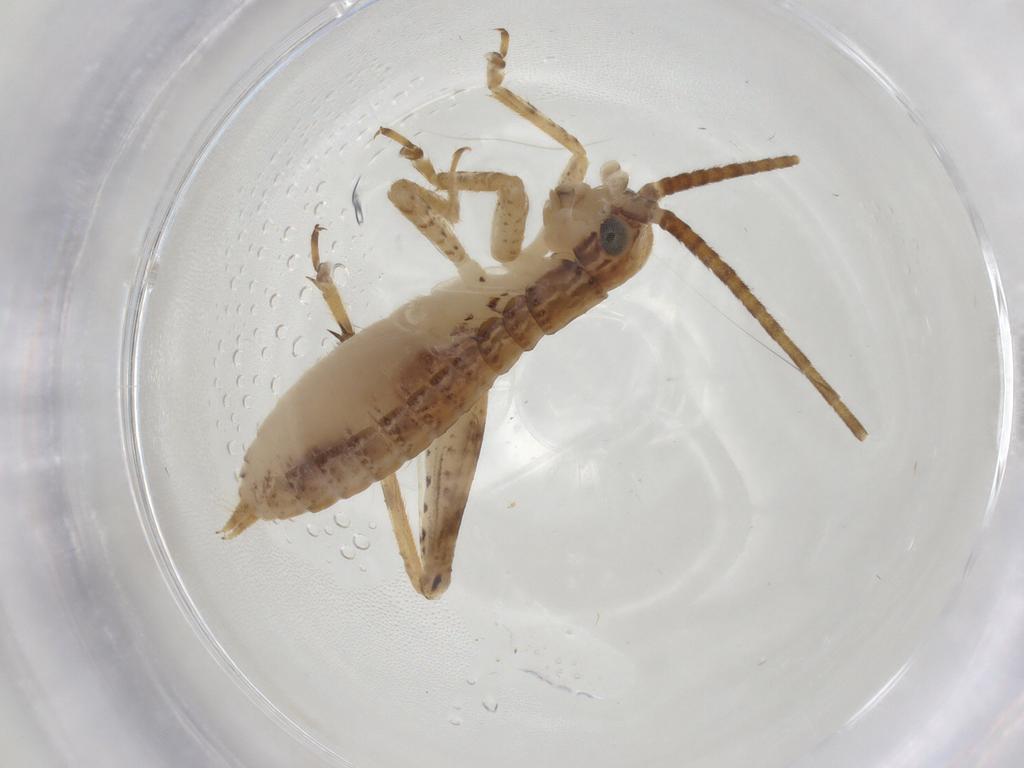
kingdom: Animalia
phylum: Arthropoda
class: Insecta
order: Orthoptera
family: Gryllidae
